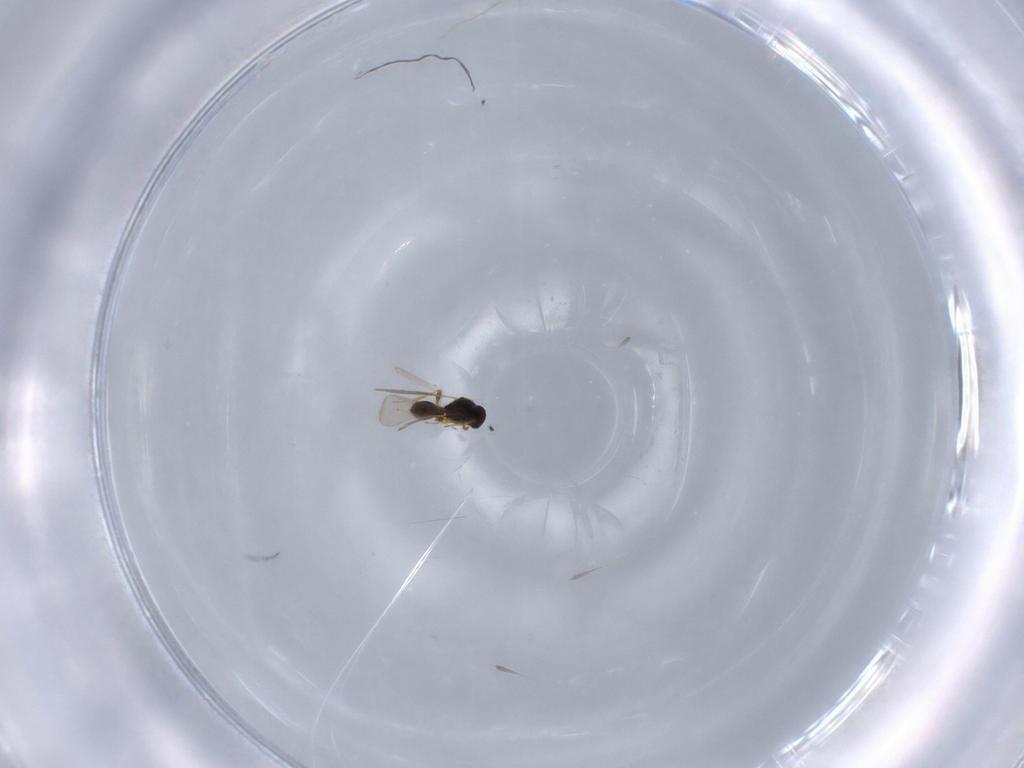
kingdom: Animalia
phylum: Arthropoda
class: Insecta
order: Hymenoptera
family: Platygastridae
